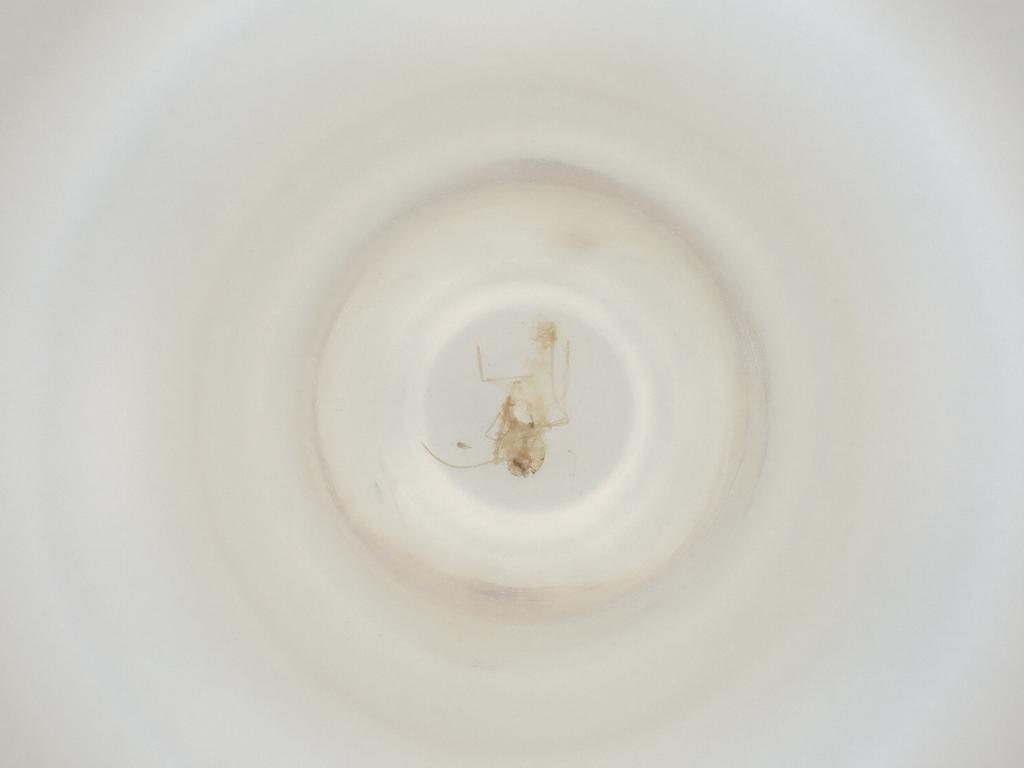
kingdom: Animalia
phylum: Arthropoda
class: Insecta
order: Diptera
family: Cecidomyiidae
